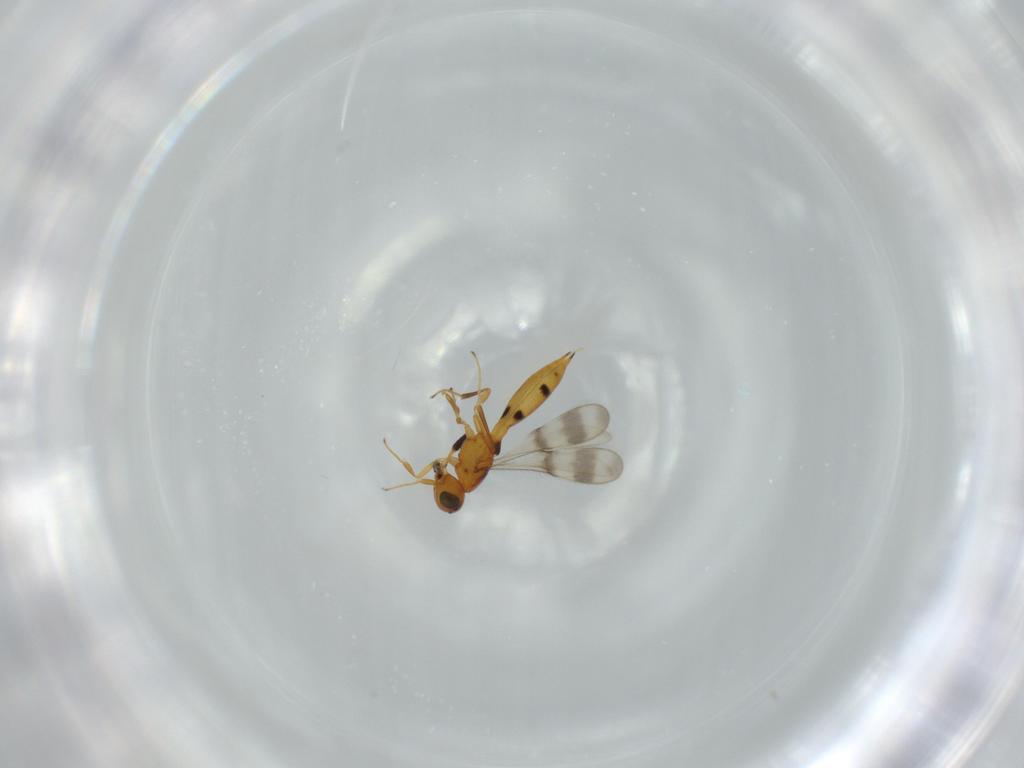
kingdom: Animalia
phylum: Arthropoda
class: Insecta
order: Hymenoptera
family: Scelionidae
